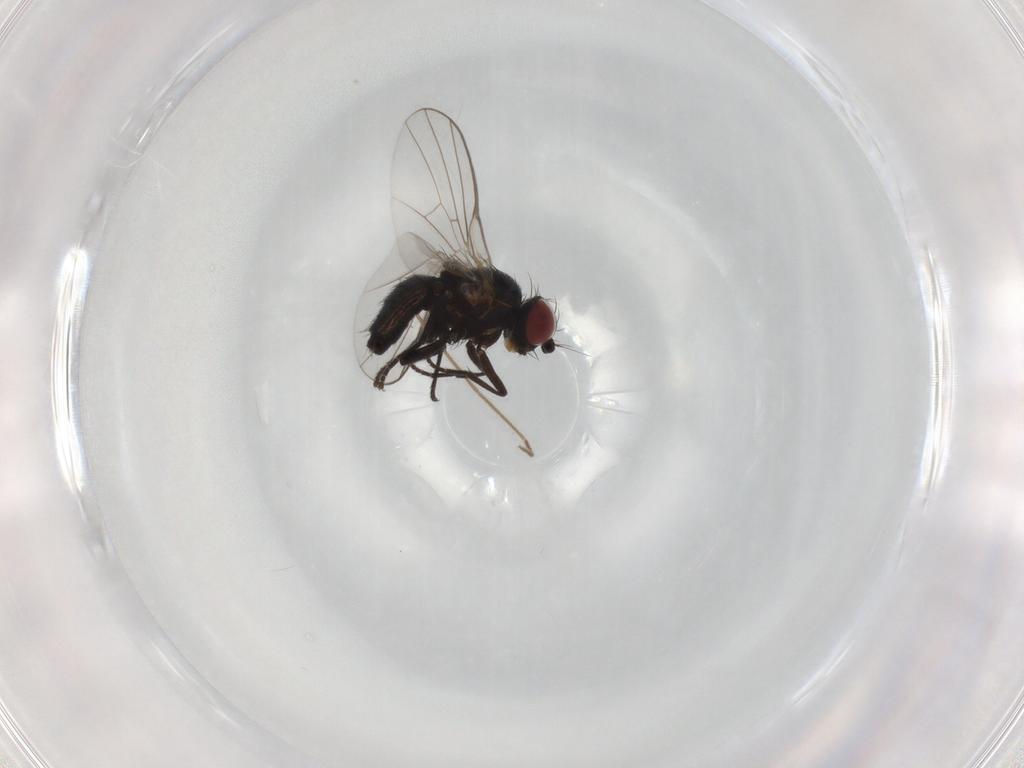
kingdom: Animalia
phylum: Arthropoda
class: Insecta
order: Diptera
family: Agromyzidae
